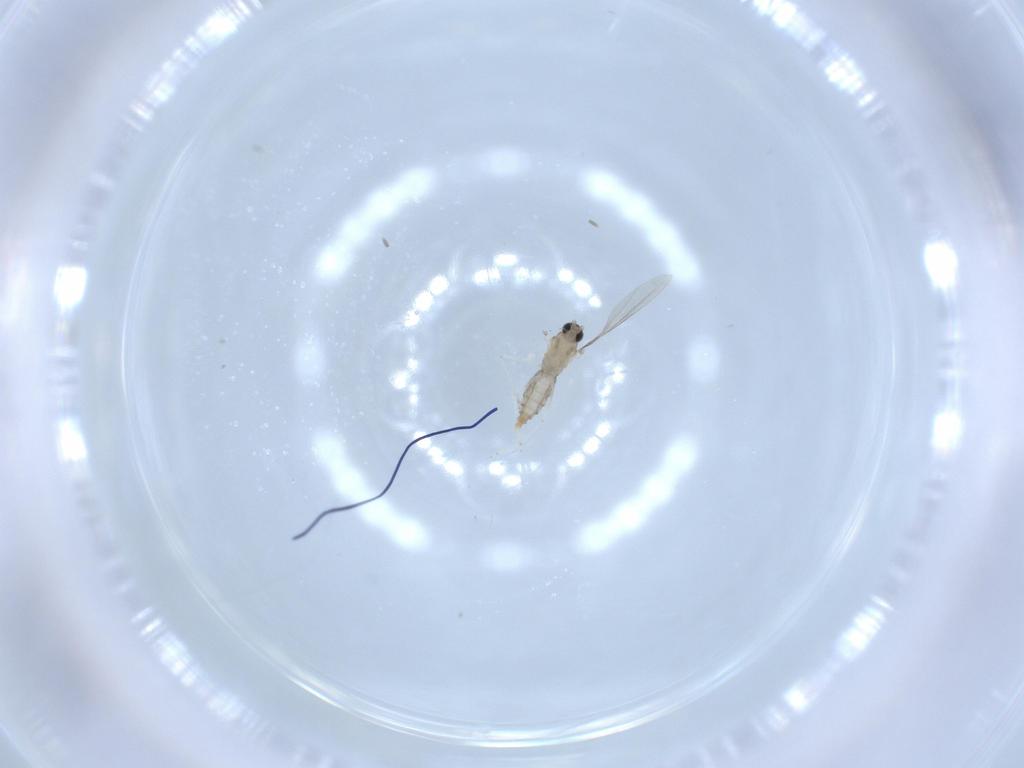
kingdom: Animalia
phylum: Arthropoda
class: Insecta
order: Diptera
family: Cecidomyiidae
